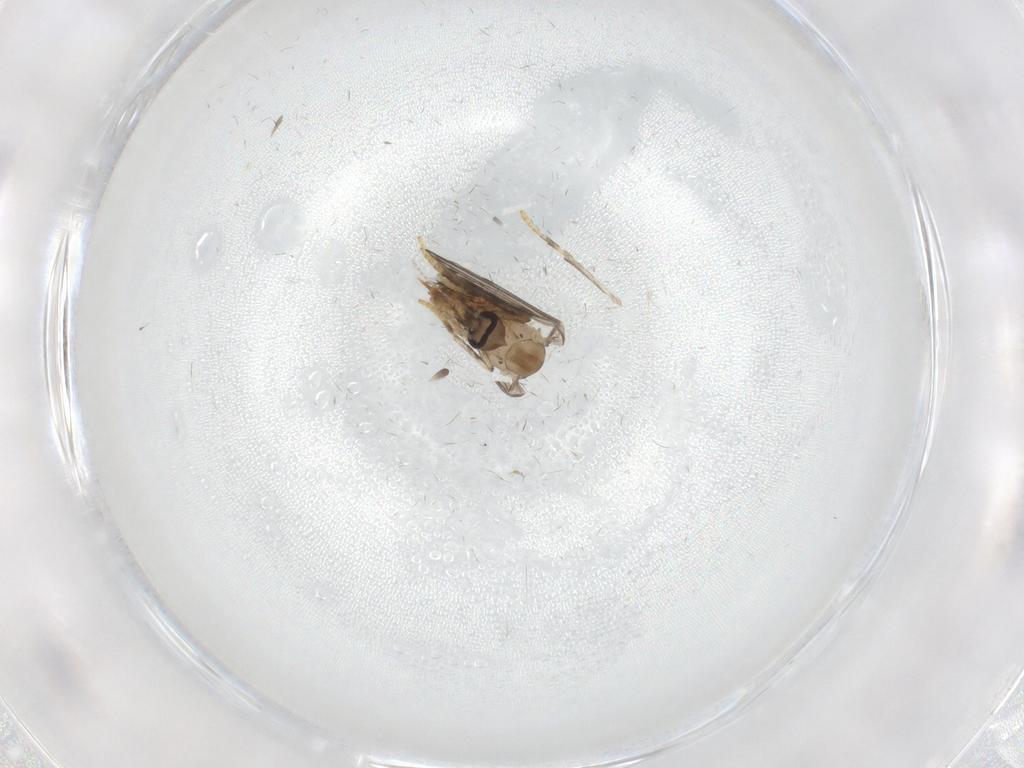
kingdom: Animalia
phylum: Arthropoda
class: Insecta
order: Diptera
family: Psychodidae
